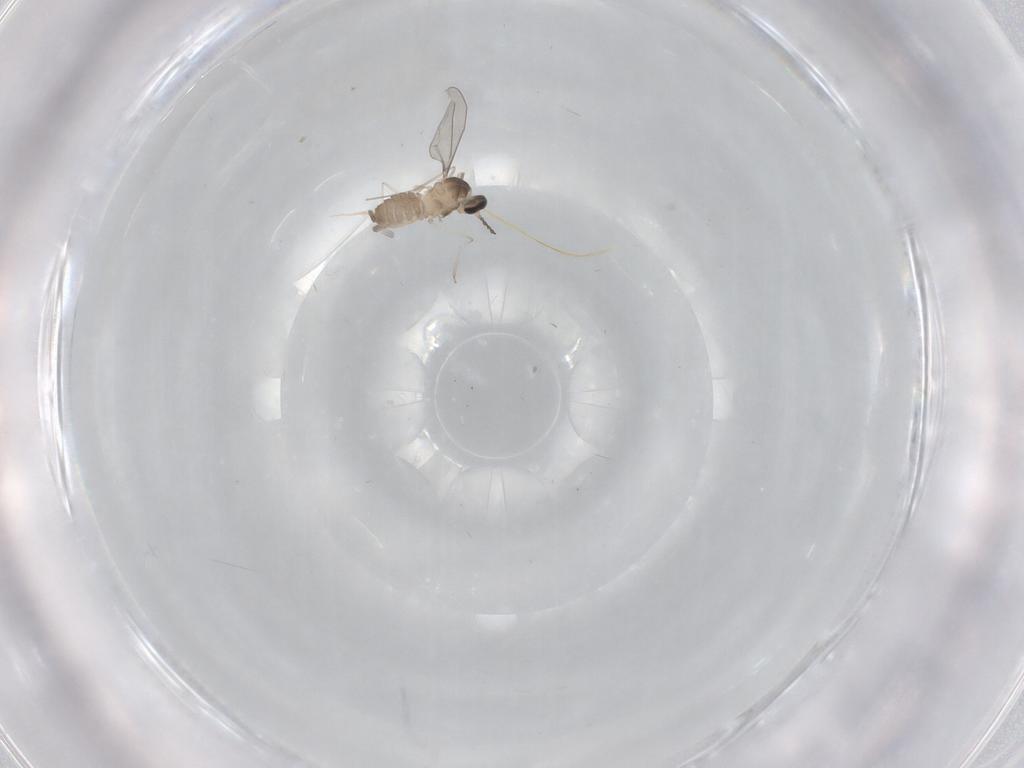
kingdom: Animalia
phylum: Arthropoda
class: Insecta
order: Diptera
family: Cecidomyiidae
